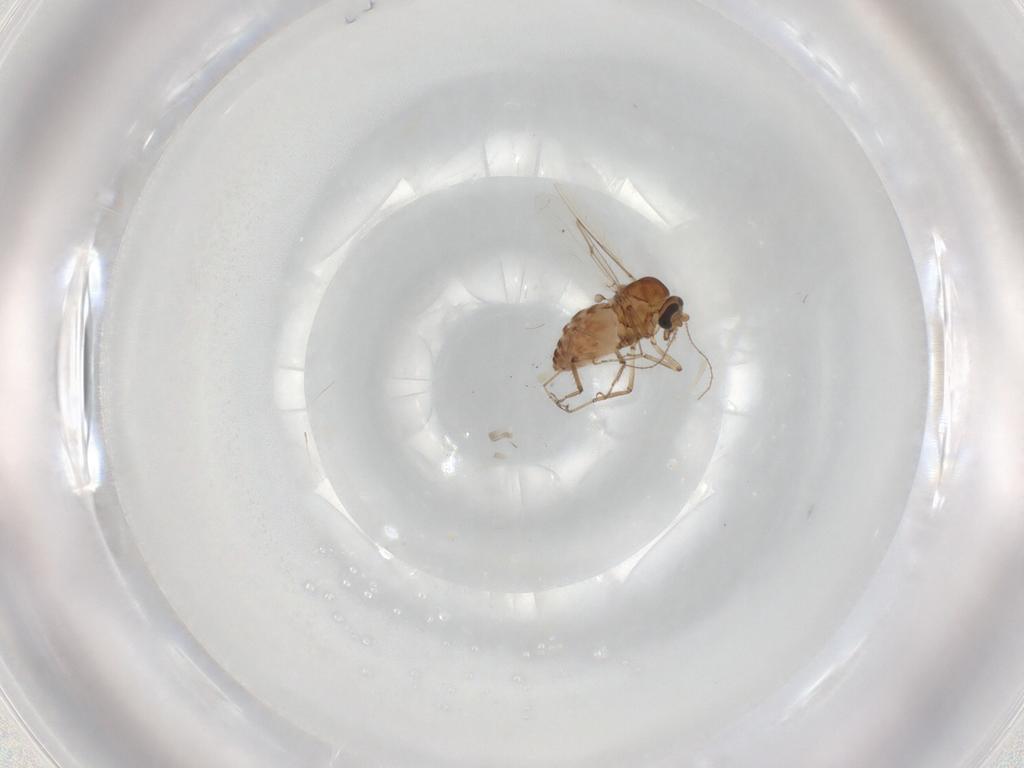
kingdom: Animalia
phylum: Arthropoda
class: Insecta
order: Diptera
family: Ceratopogonidae
